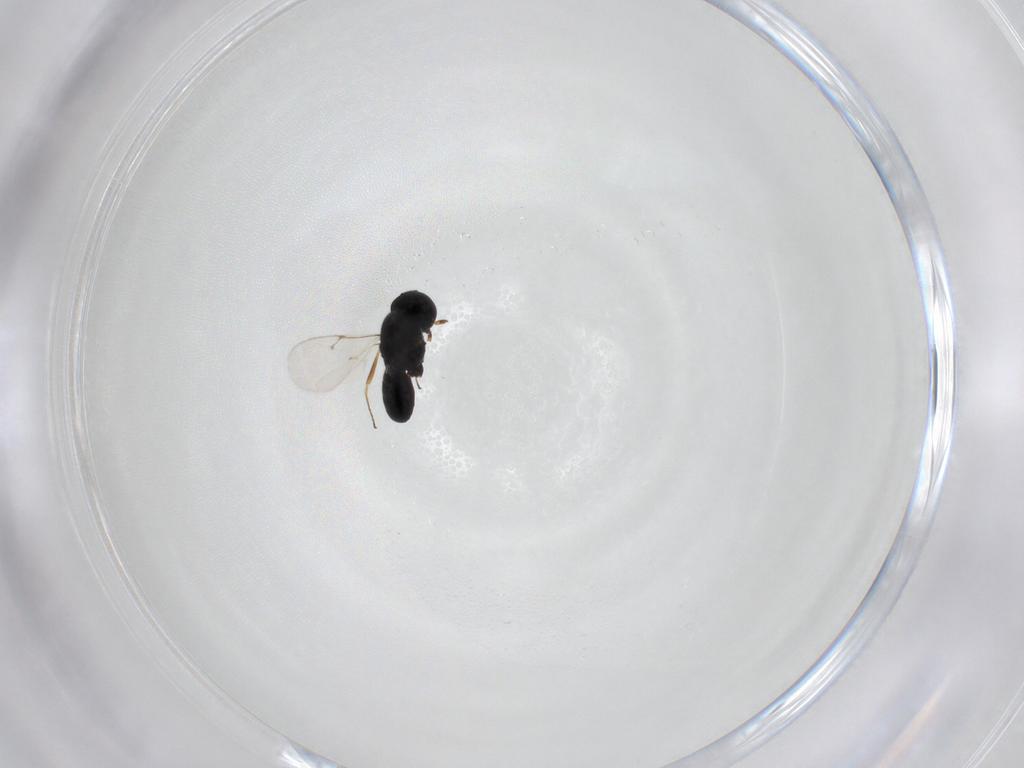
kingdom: Animalia
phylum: Arthropoda
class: Insecta
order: Hymenoptera
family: Scelionidae
